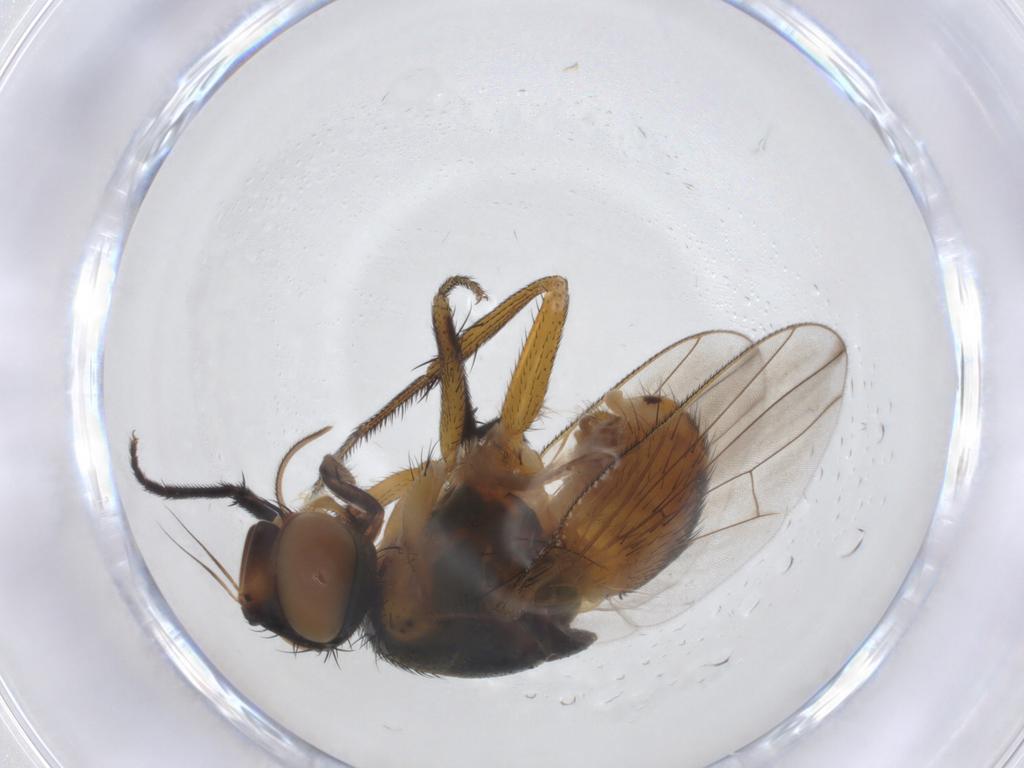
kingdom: Animalia
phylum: Arthropoda
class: Insecta
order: Diptera
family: Muscidae
